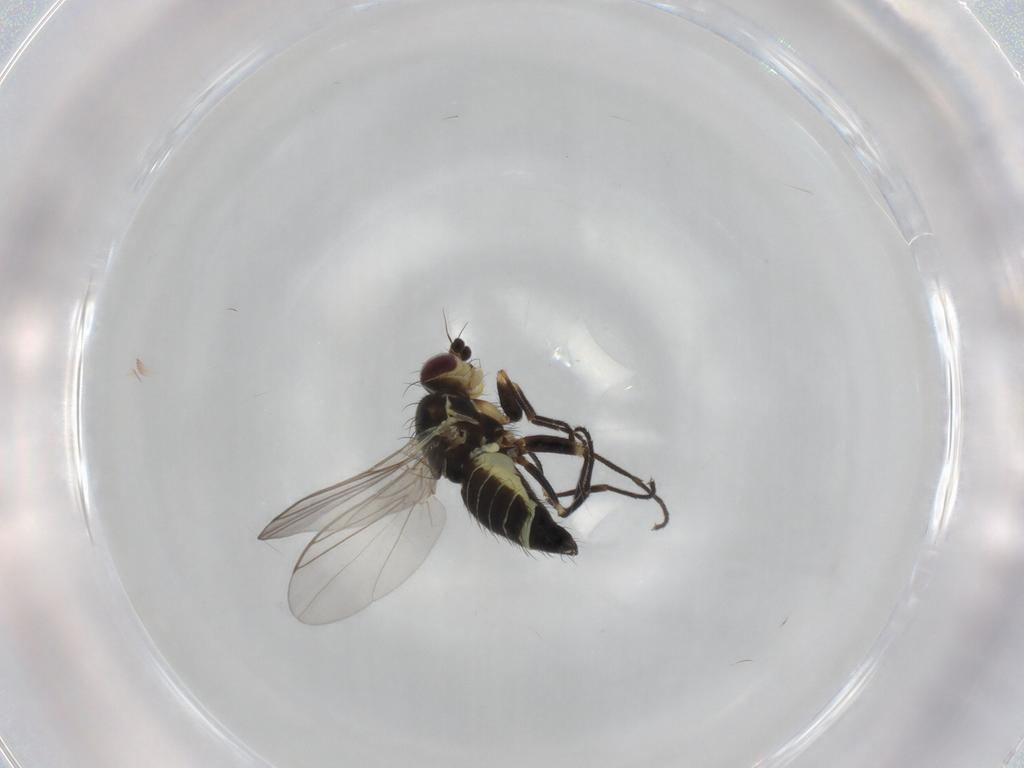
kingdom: Animalia
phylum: Arthropoda
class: Insecta
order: Diptera
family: Agromyzidae
